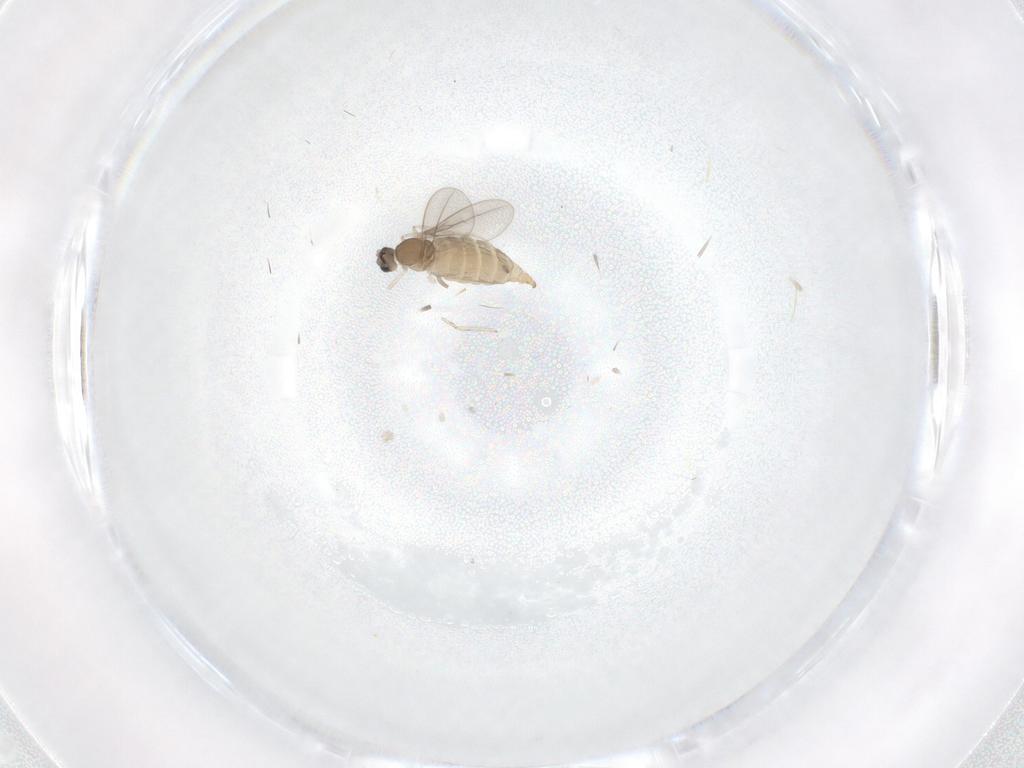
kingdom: Animalia
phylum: Arthropoda
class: Insecta
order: Diptera
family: Cecidomyiidae
